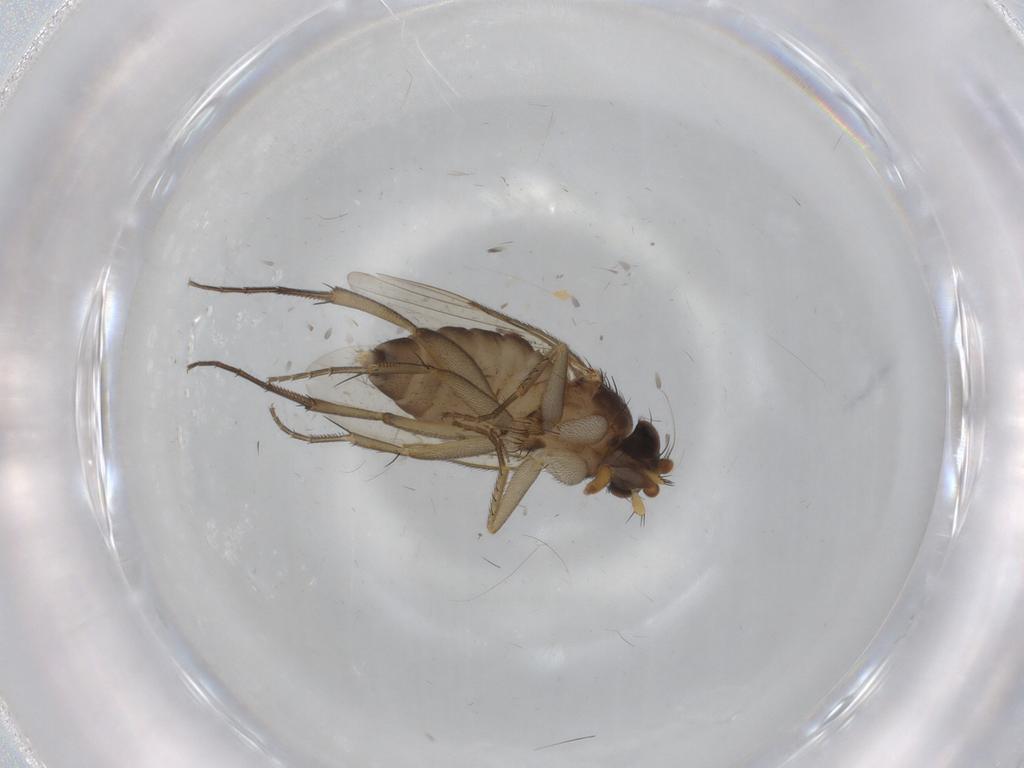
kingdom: Animalia
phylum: Arthropoda
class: Insecta
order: Diptera
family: Phoridae
